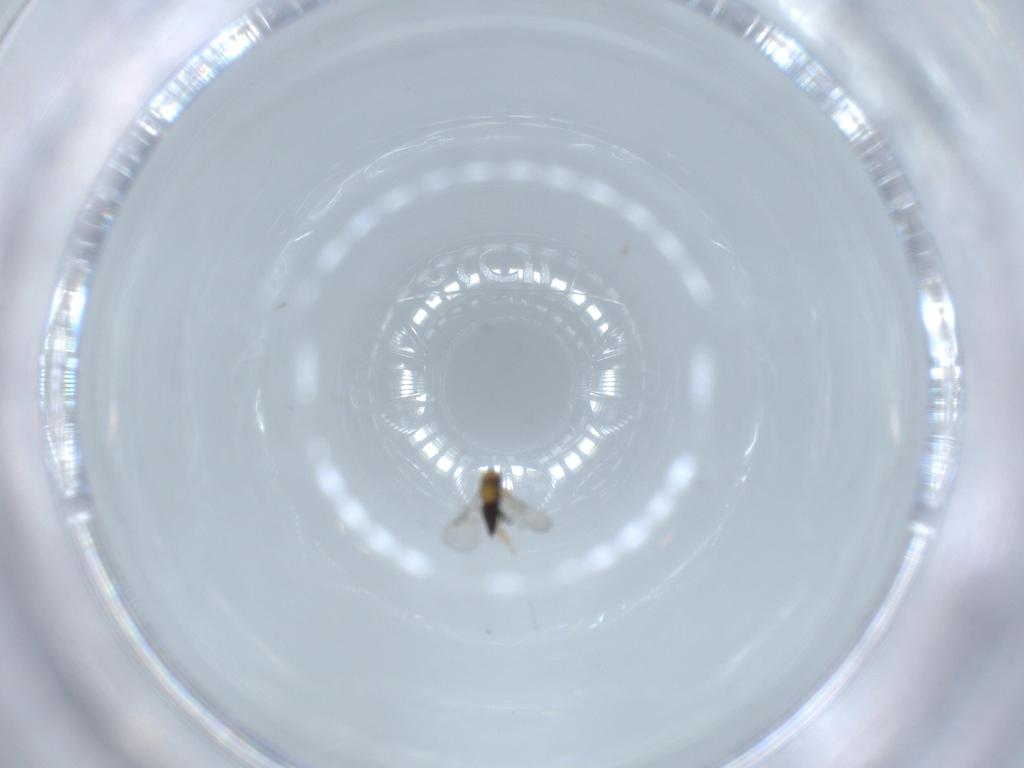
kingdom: Animalia
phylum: Arthropoda
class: Insecta
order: Hymenoptera
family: Trichogrammatidae
